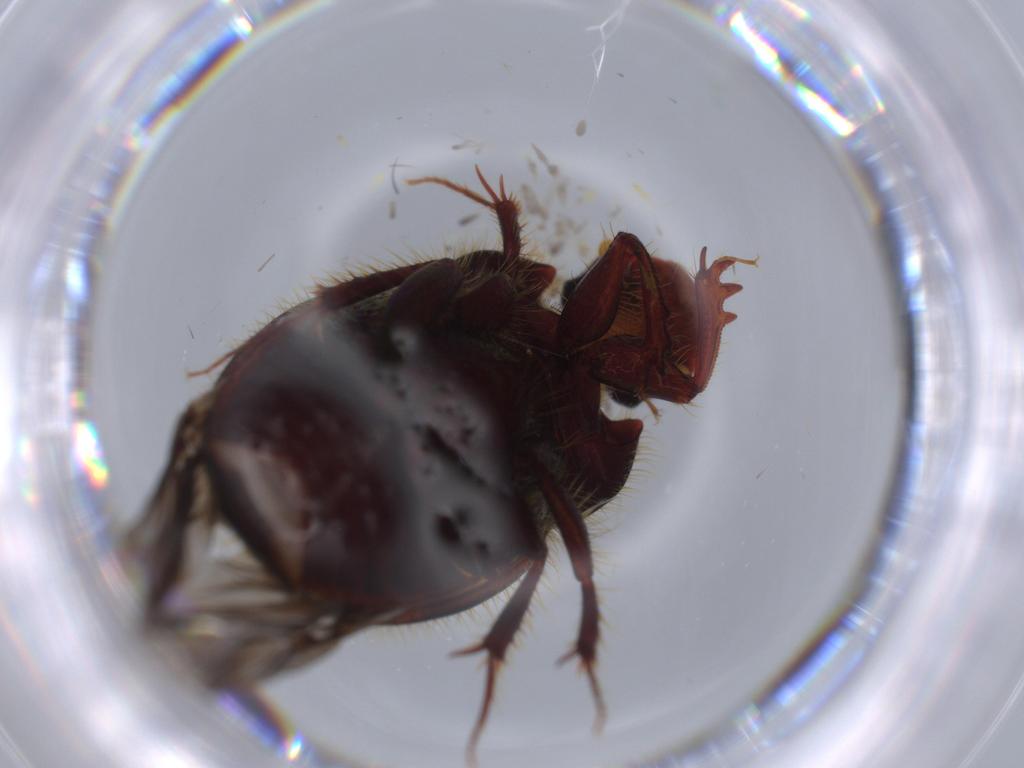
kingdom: Animalia
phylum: Arthropoda
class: Insecta
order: Coleoptera
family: Scarabaeidae
